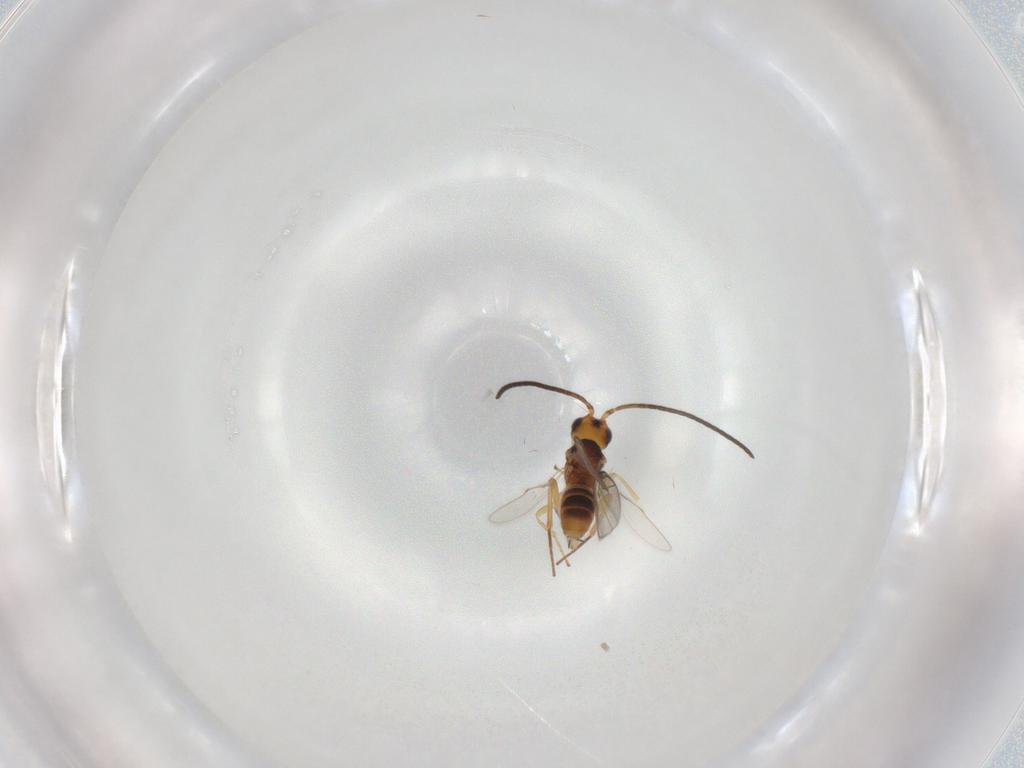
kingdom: Animalia
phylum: Arthropoda
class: Insecta
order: Hymenoptera
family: Braconidae
